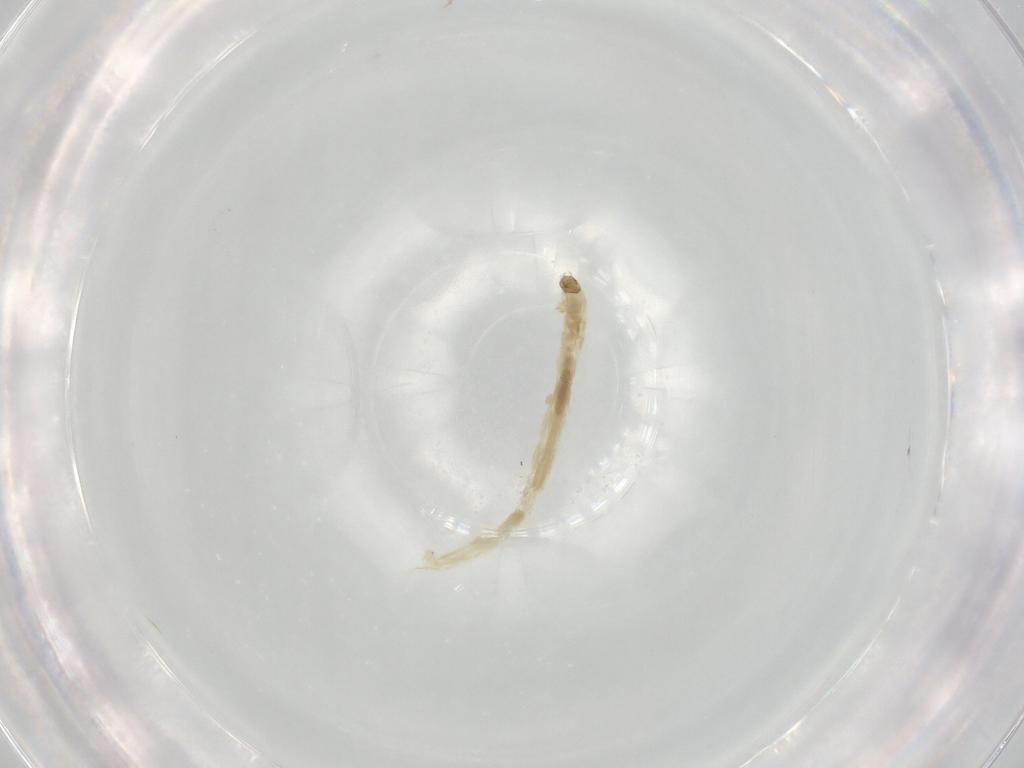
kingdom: Animalia
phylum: Arthropoda
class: Insecta
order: Diptera
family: Chironomidae
